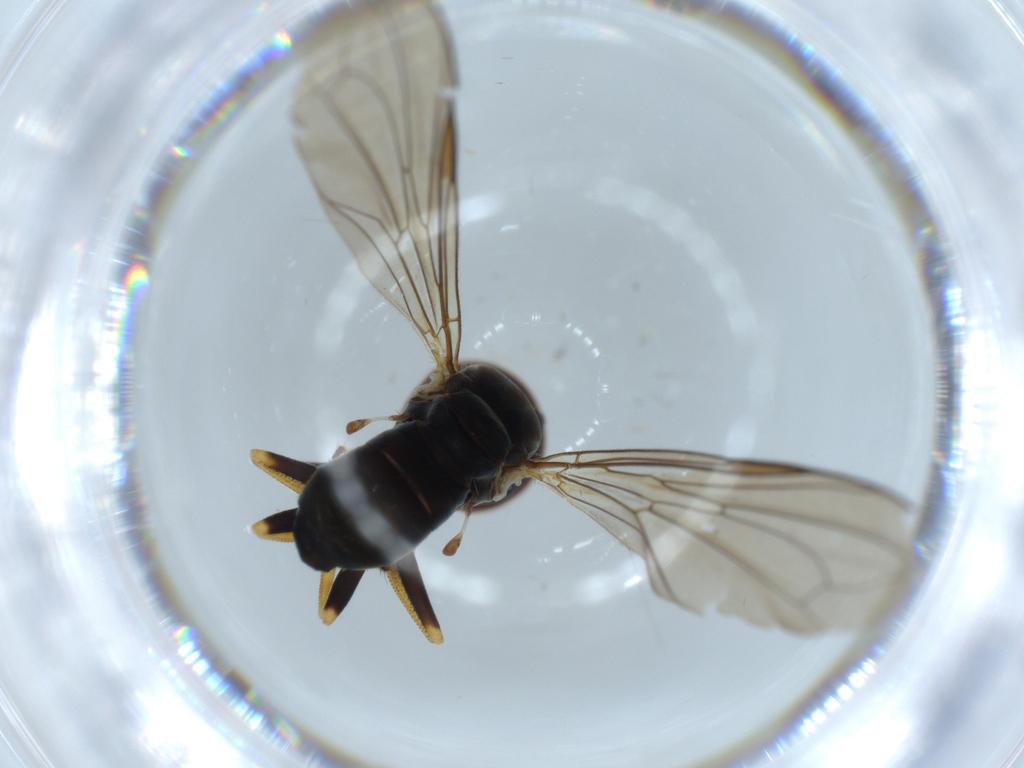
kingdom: Animalia
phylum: Arthropoda
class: Insecta
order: Diptera
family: Pipunculidae
